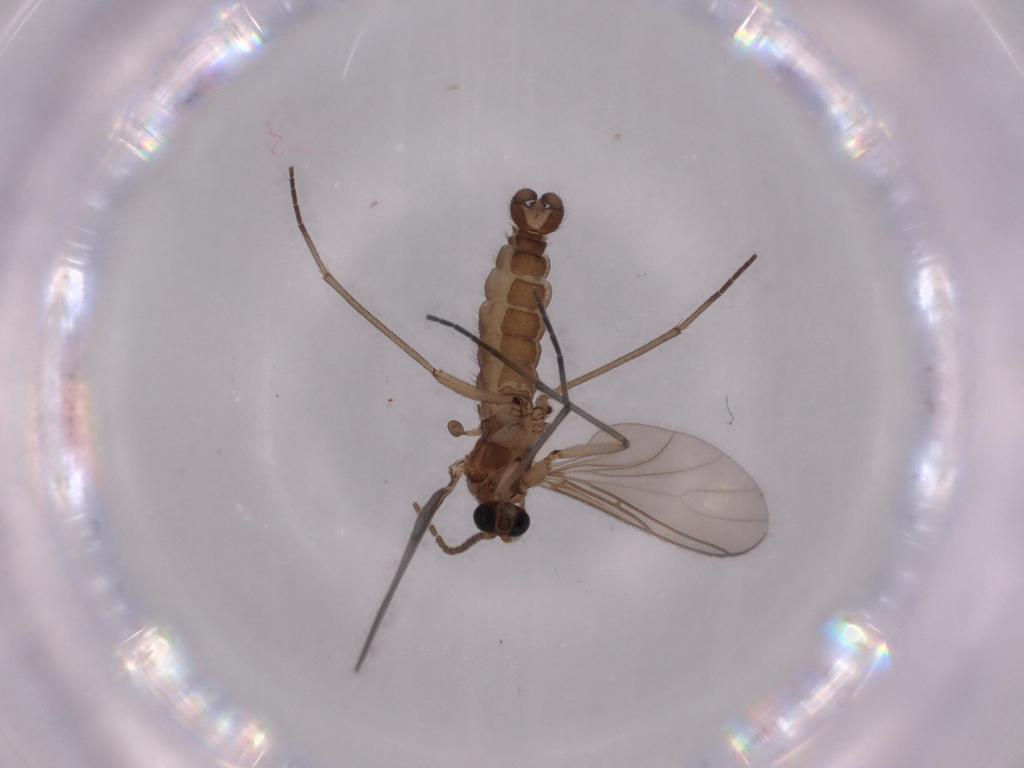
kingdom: Animalia
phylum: Arthropoda
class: Insecta
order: Diptera
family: Sciaridae
